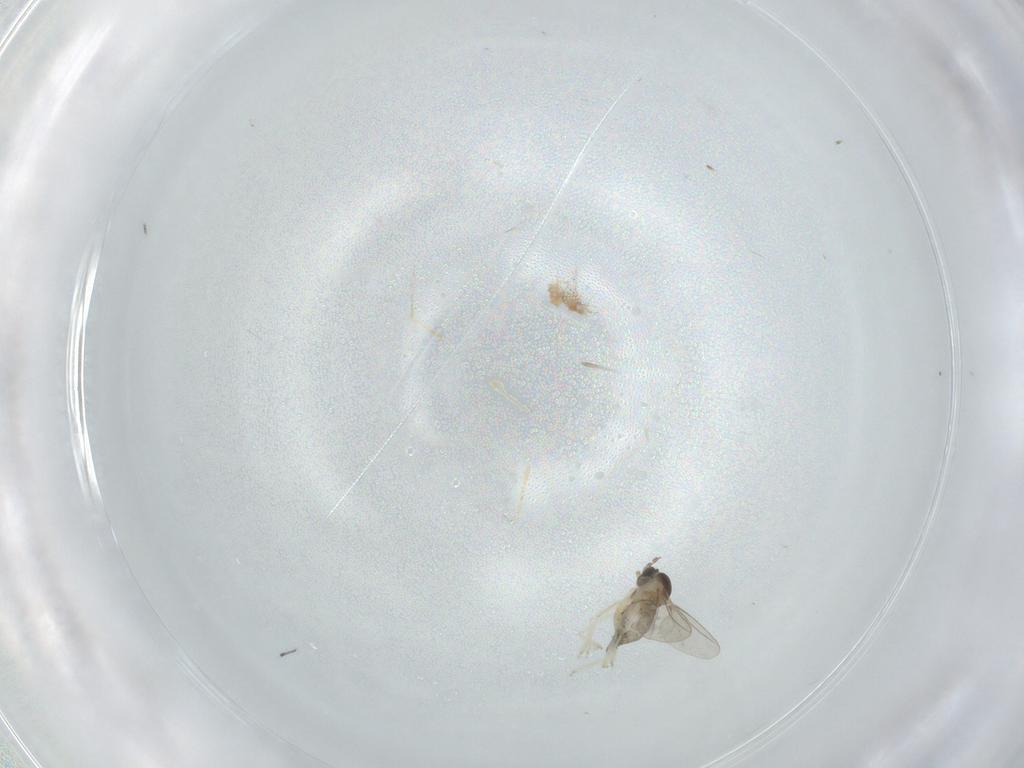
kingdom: Animalia
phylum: Arthropoda
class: Insecta
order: Diptera
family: Cecidomyiidae
